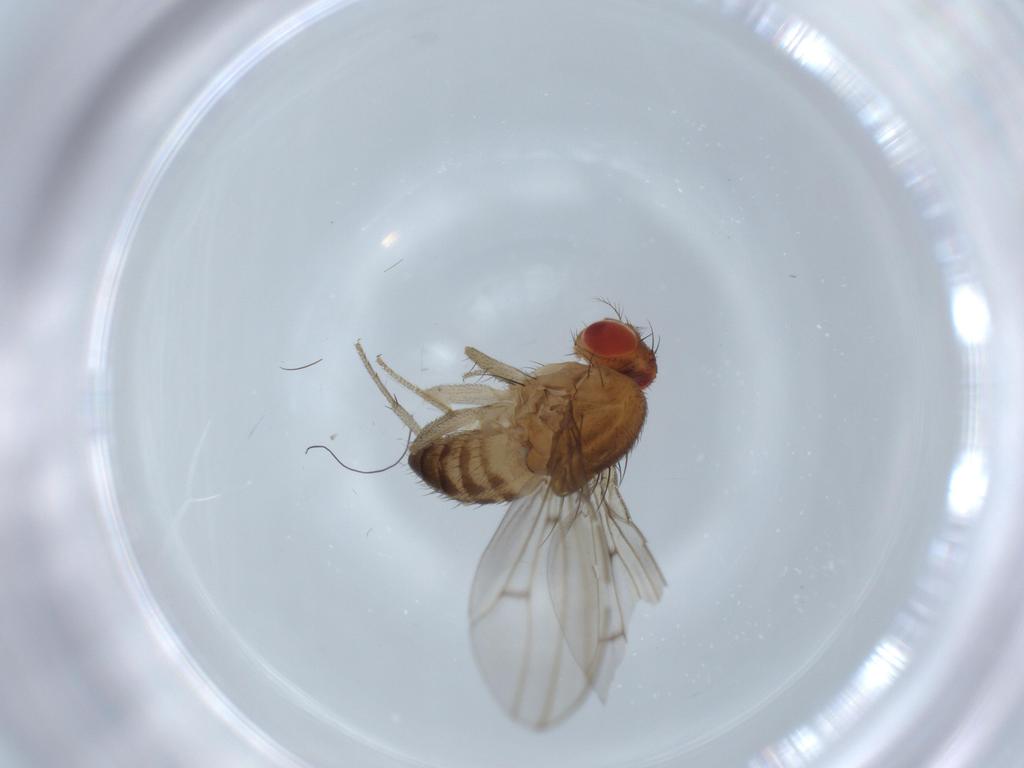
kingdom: Animalia
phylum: Arthropoda
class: Insecta
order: Diptera
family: Drosophilidae
